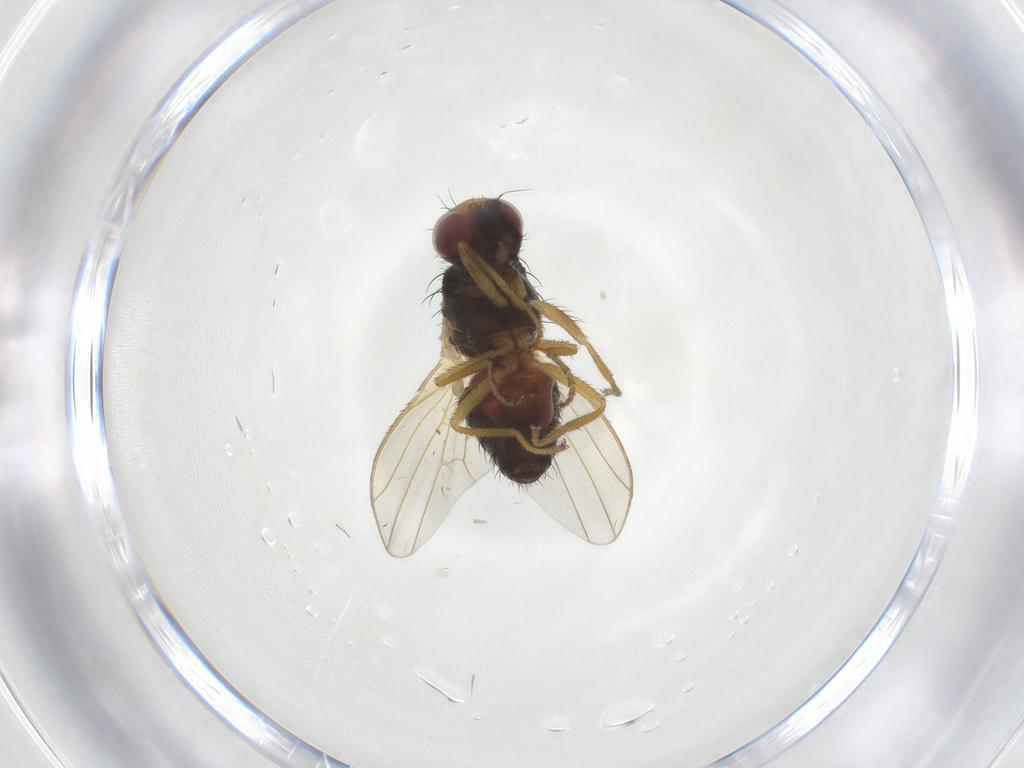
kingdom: Animalia
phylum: Arthropoda
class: Insecta
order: Diptera
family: Heleomyzidae
